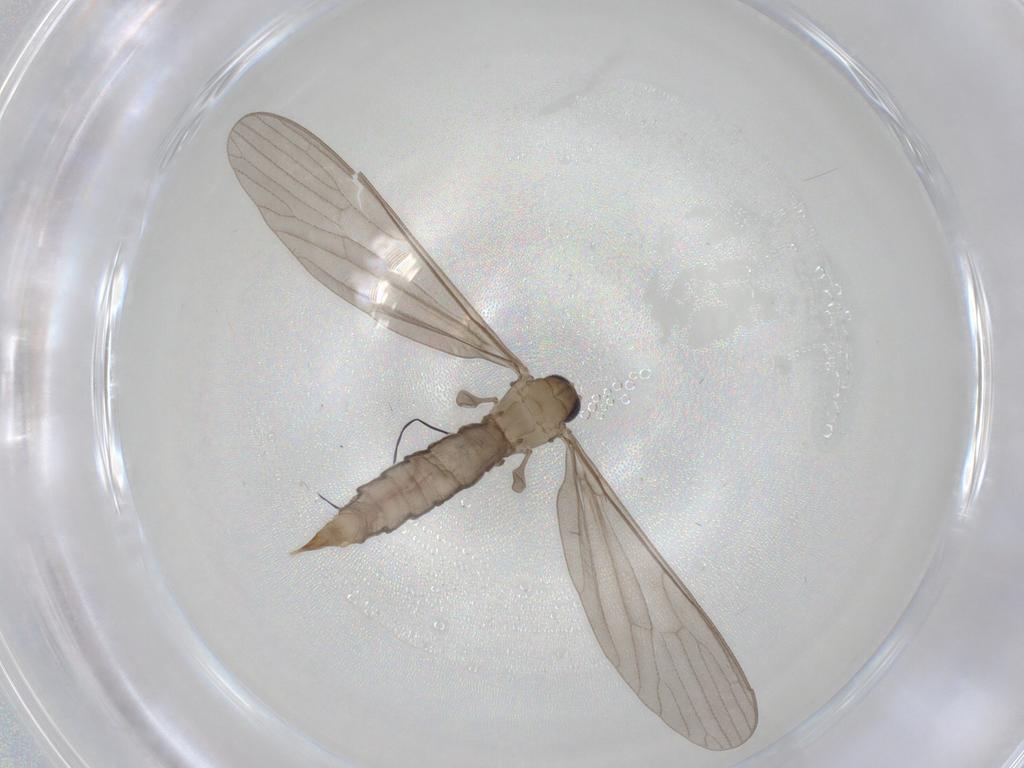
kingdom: Animalia
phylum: Arthropoda
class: Insecta
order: Diptera
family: Limoniidae
